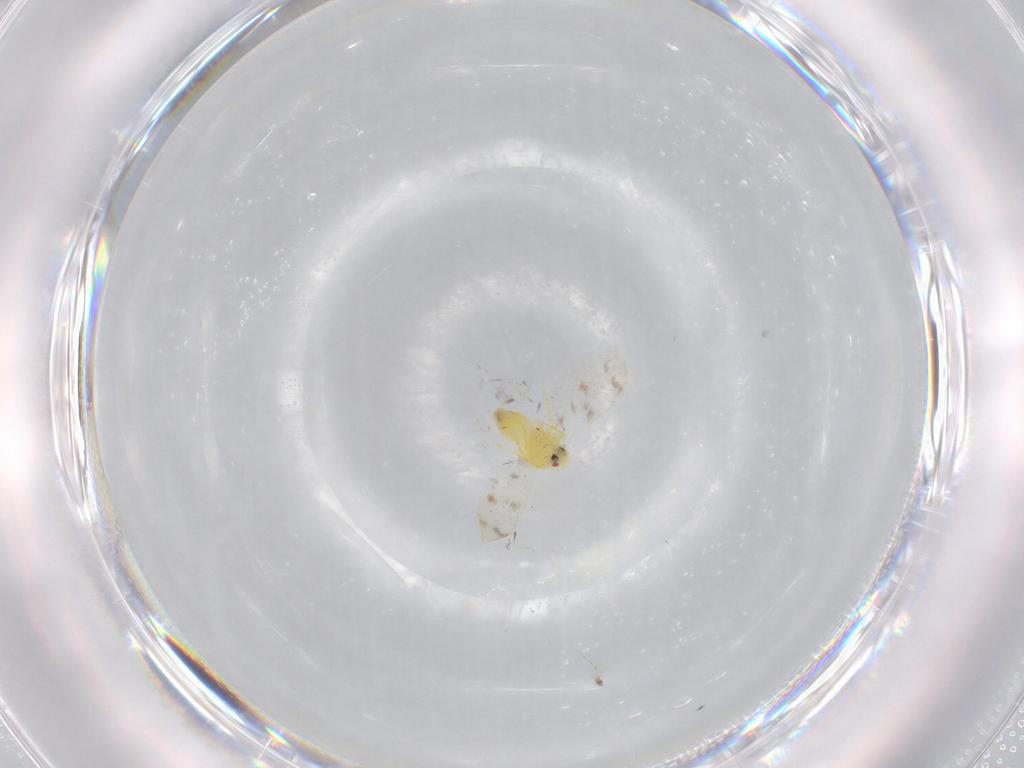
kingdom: Animalia
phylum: Arthropoda
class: Insecta
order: Hemiptera
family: Aleyrodidae
